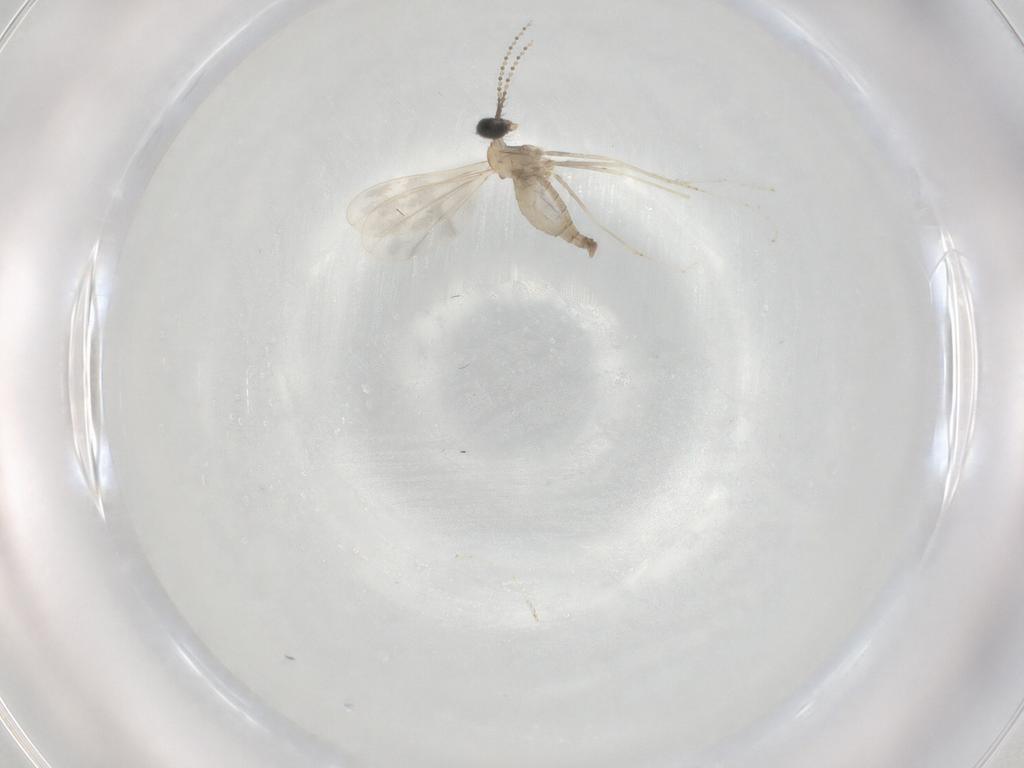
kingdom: Animalia
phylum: Arthropoda
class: Insecta
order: Diptera
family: Cecidomyiidae
